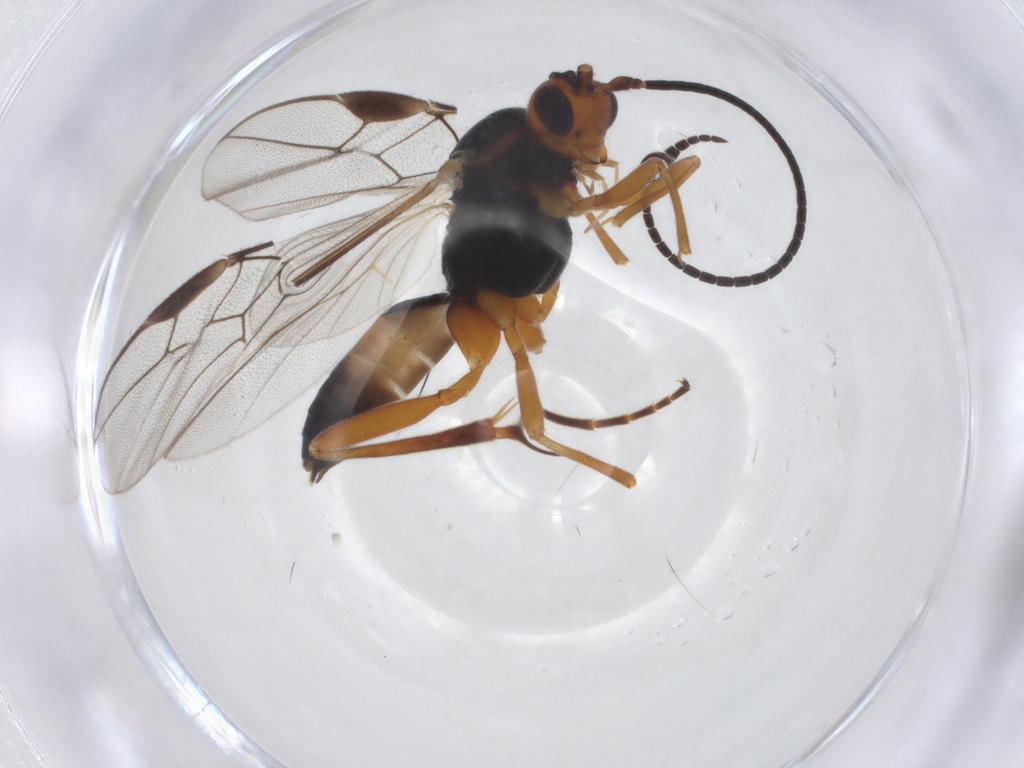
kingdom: Animalia
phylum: Arthropoda
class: Insecta
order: Hymenoptera
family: Braconidae
